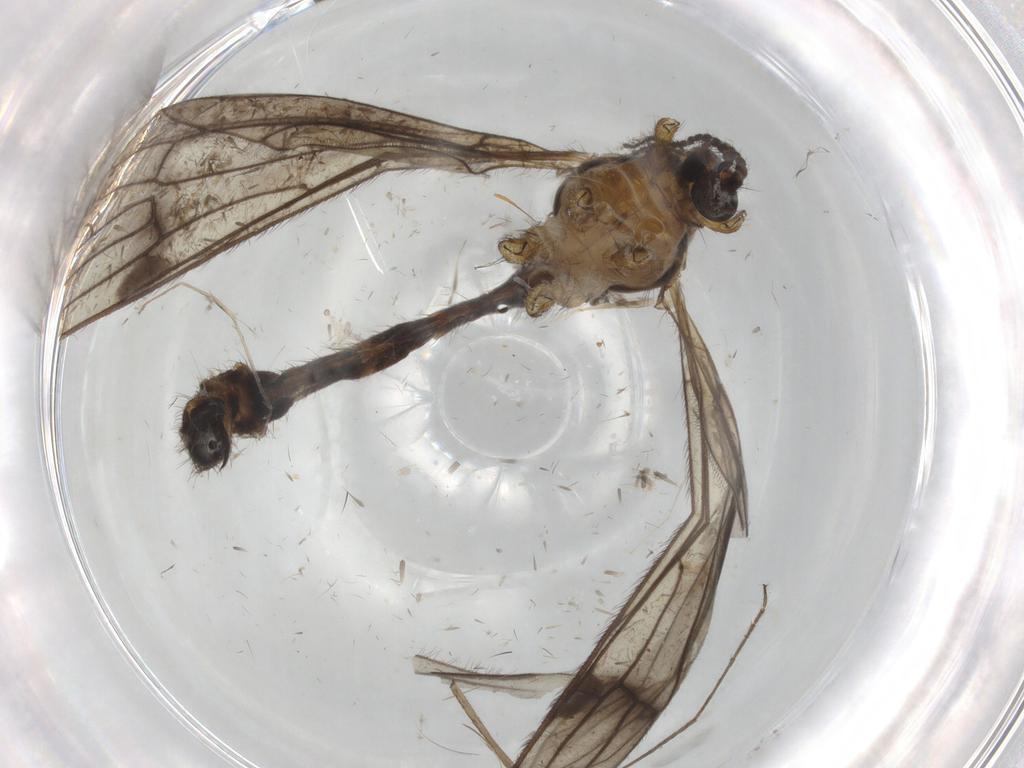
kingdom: Animalia
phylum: Arthropoda
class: Insecta
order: Diptera
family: Limoniidae
